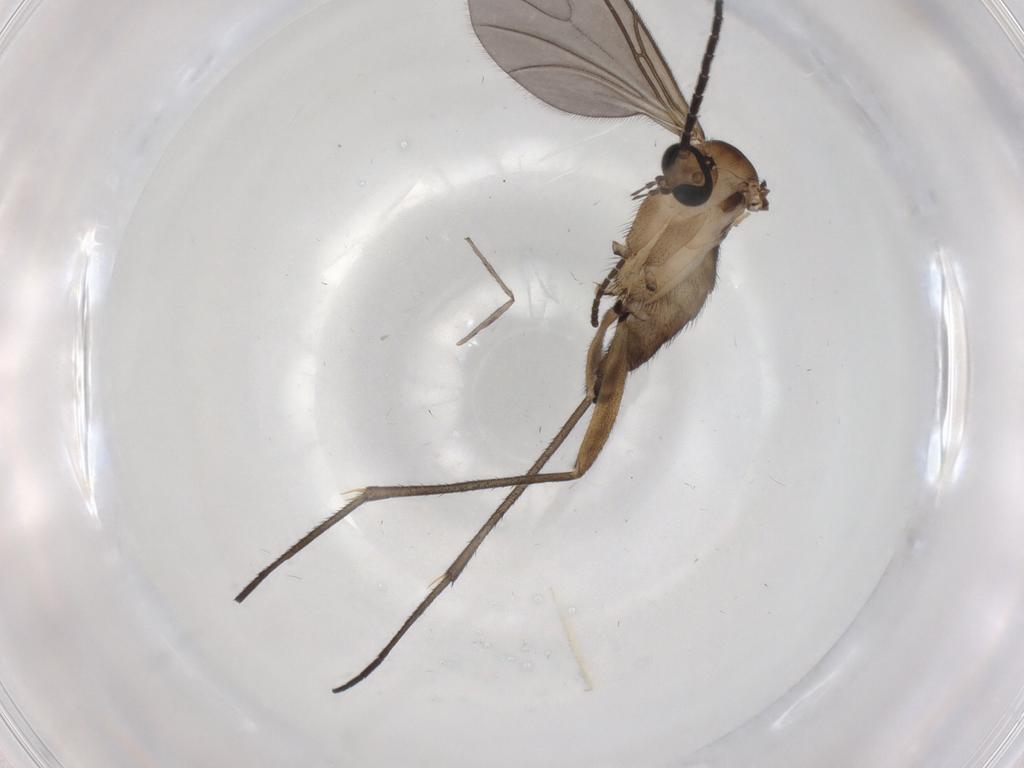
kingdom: Animalia
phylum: Arthropoda
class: Insecta
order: Diptera
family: Sciaridae
